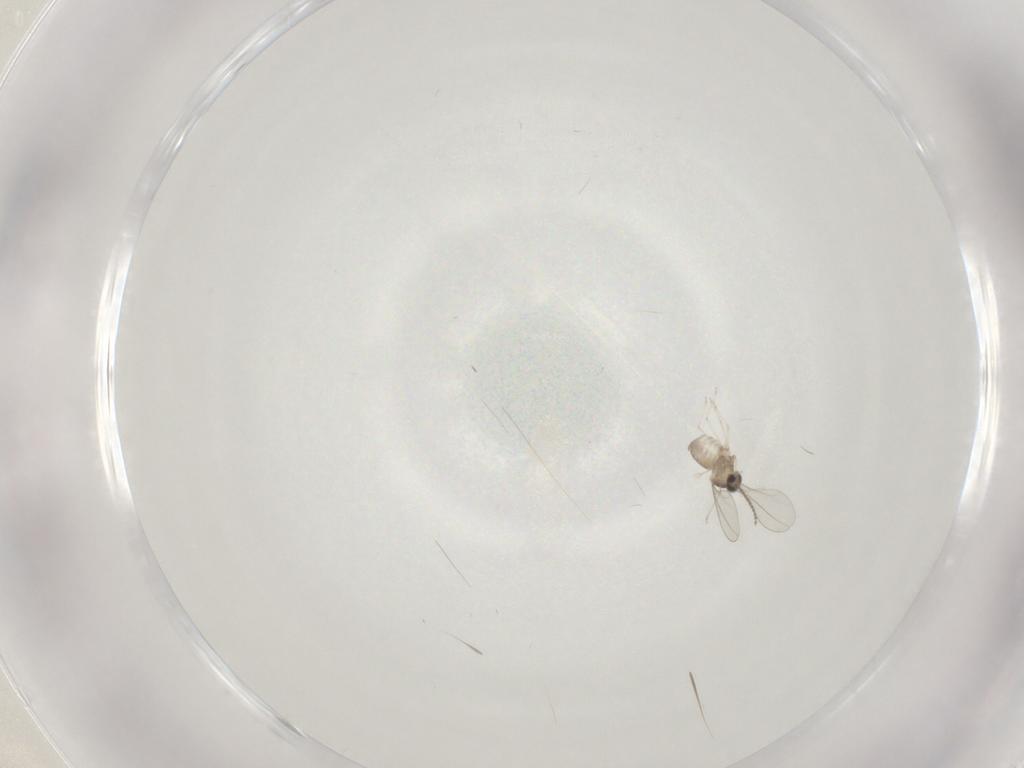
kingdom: Animalia
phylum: Arthropoda
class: Insecta
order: Diptera
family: Cecidomyiidae
